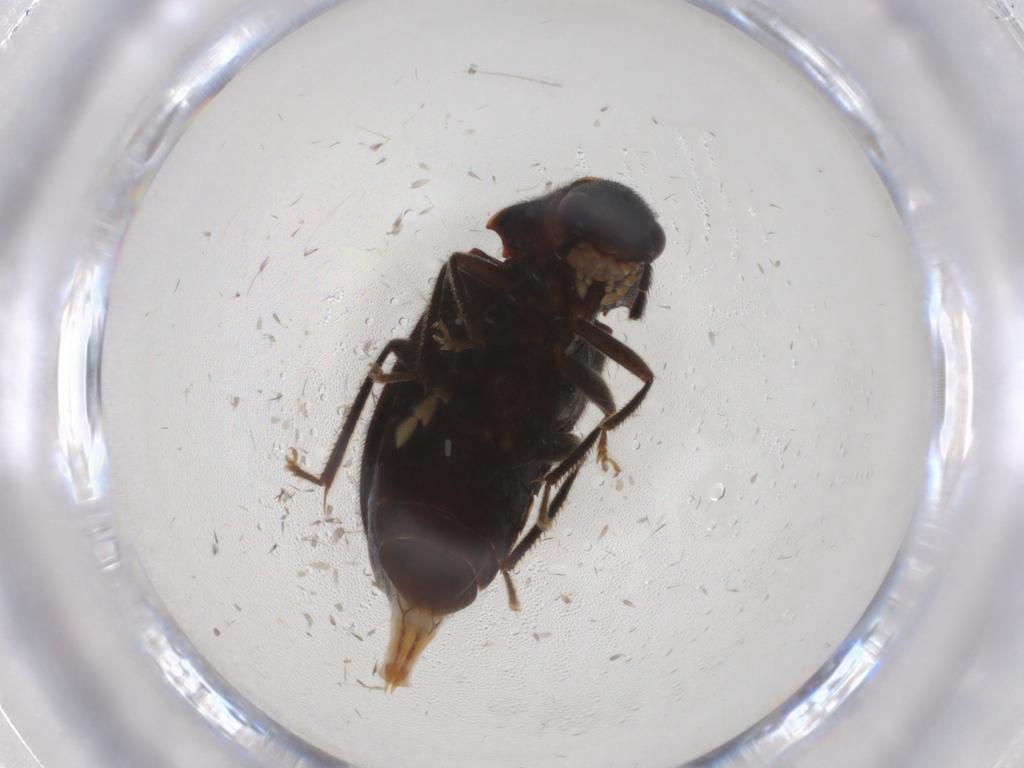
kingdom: Animalia
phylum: Arthropoda
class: Insecta
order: Coleoptera
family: Ptilodactylidae
